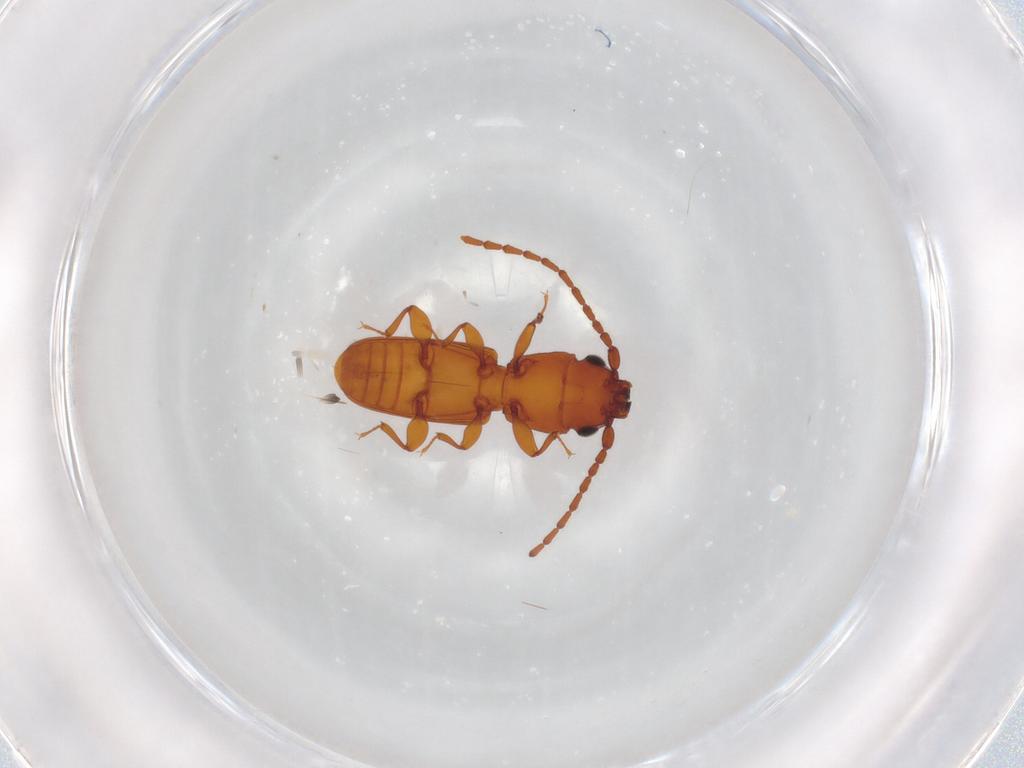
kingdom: Animalia
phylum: Arthropoda
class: Insecta
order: Coleoptera
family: Laemophloeidae
